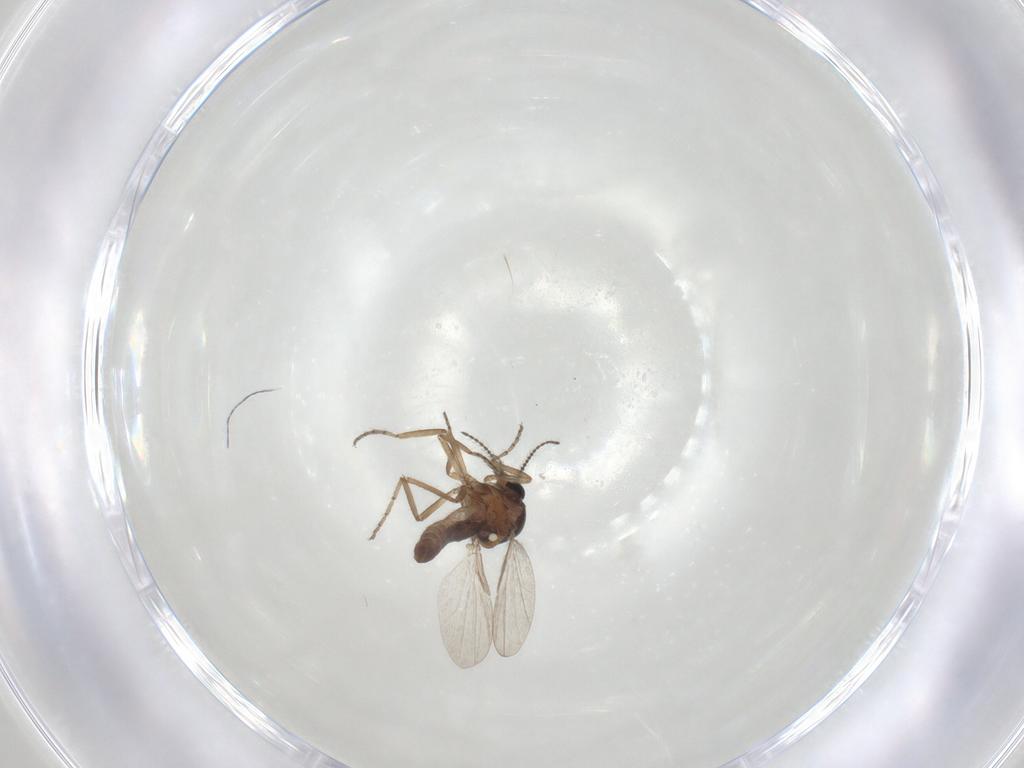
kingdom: Animalia
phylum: Arthropoda
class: Insecta
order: Diptera
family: Ceratopogonidae
